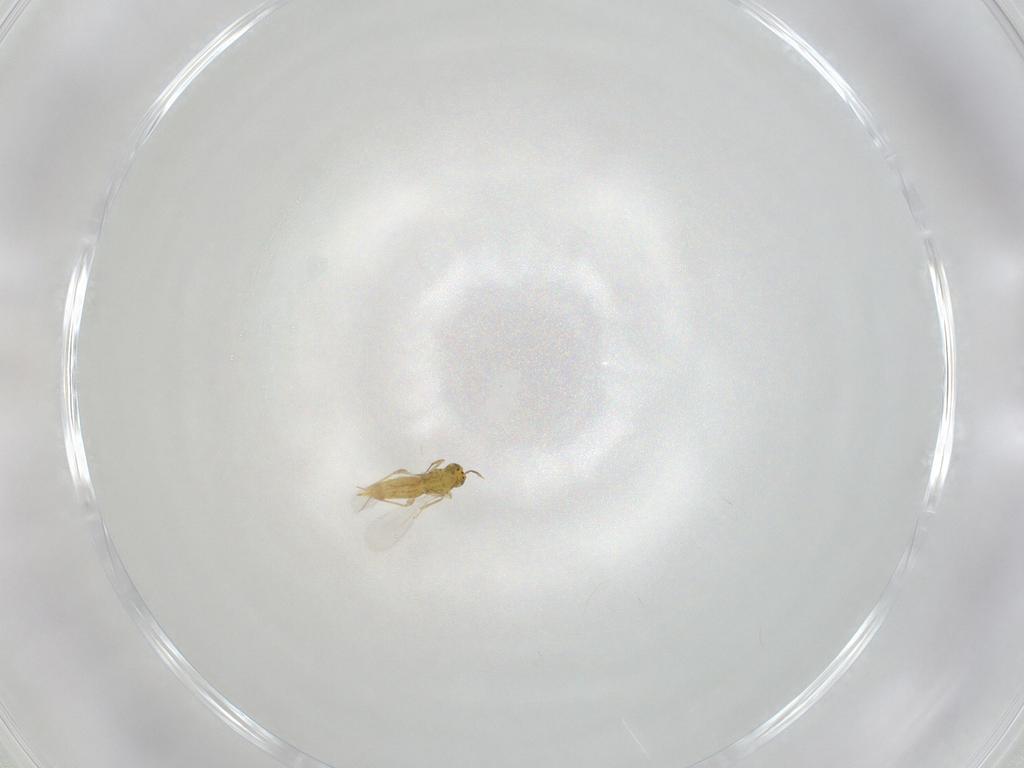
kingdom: Animalia
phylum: Arthropoda
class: Insecta
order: Hymenoptera
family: Aphelinidae
